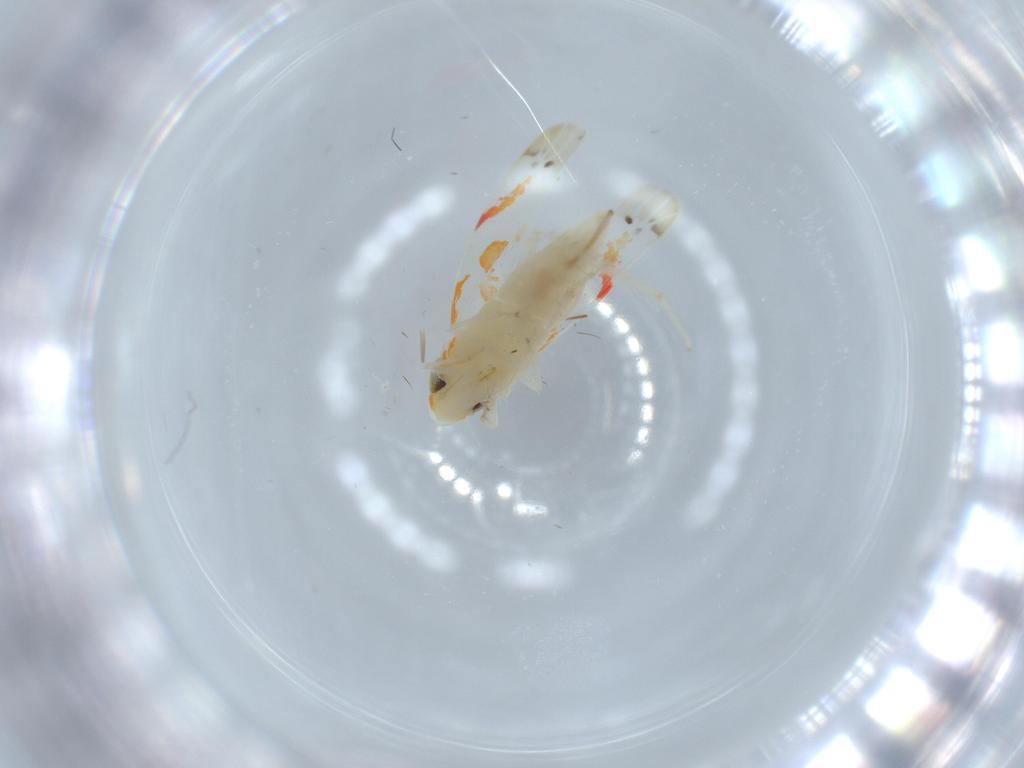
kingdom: Animalia
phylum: Arthropoda
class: Insecta
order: Hemiptera
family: Cicadellidae
